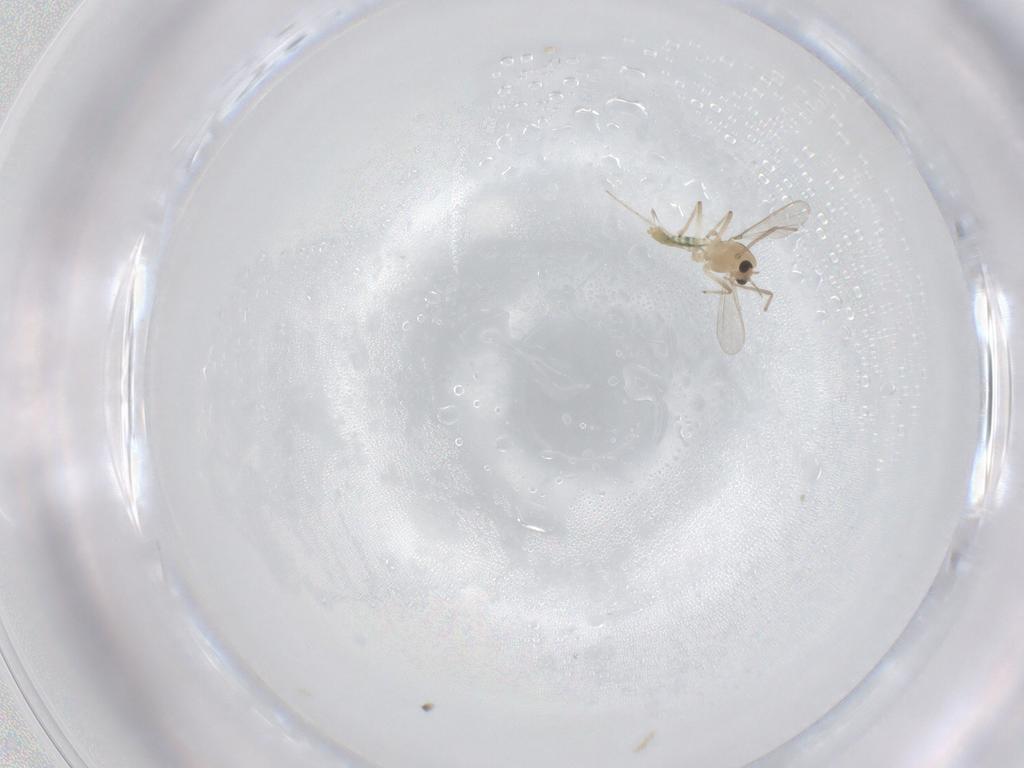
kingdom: Animalia
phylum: Arthropoda
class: Insecta
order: Diptera
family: Chironomidae
